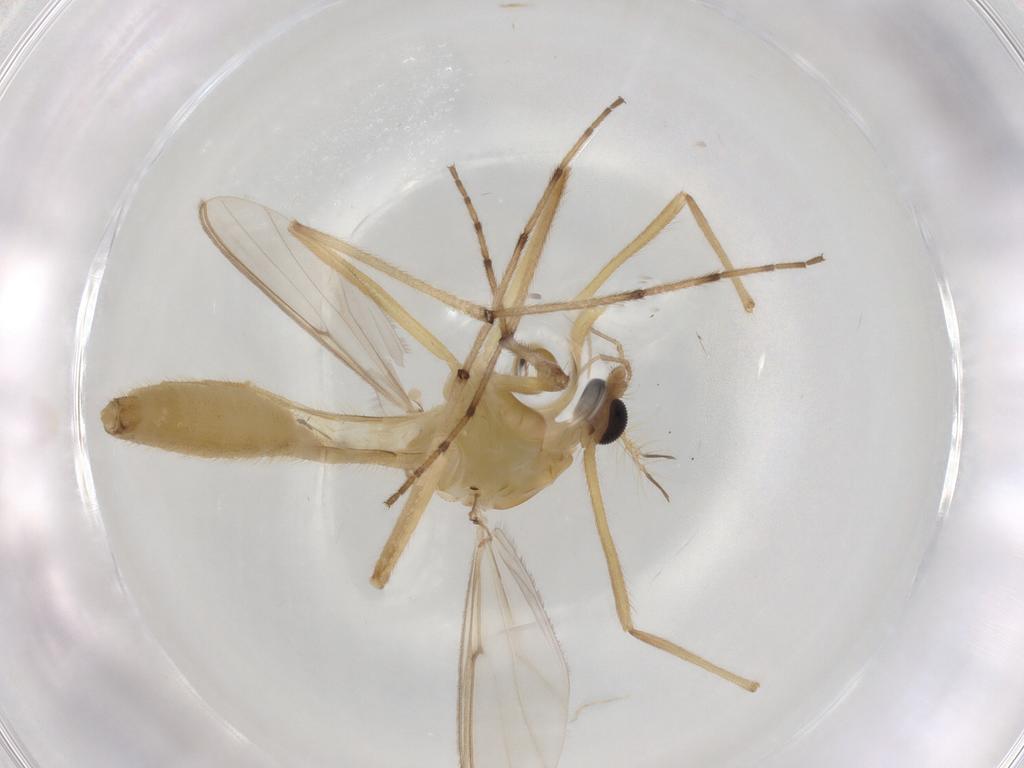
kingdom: Animalia
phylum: Arthropoda
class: Insecta
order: Diptera
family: Chironomidae
